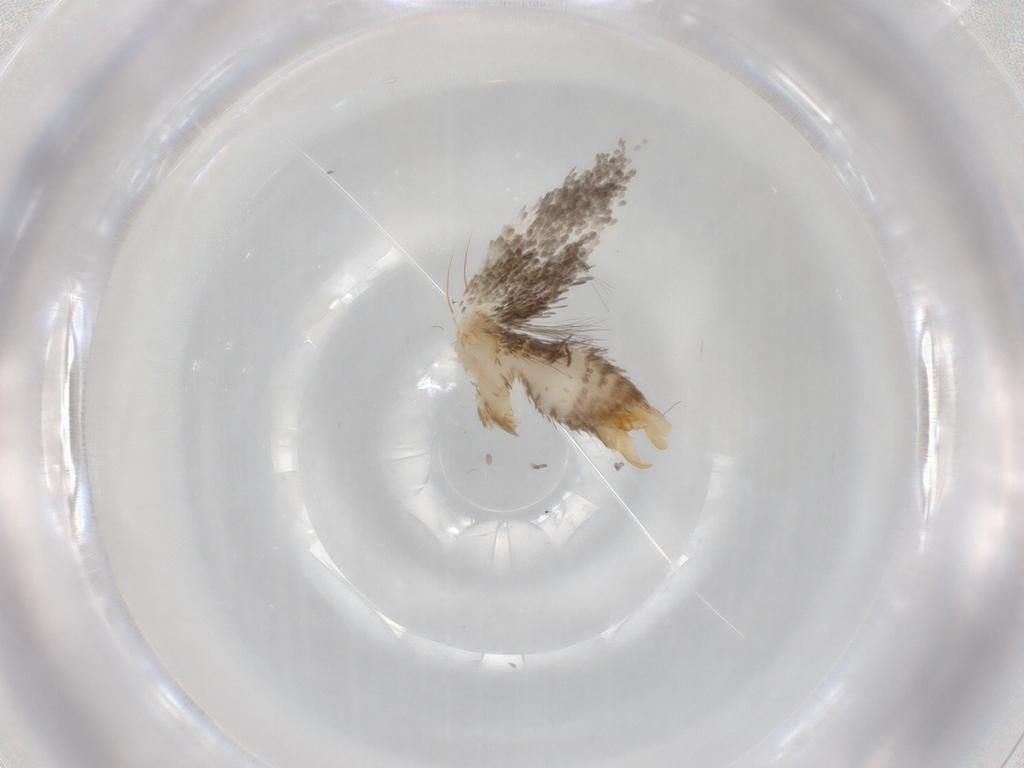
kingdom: Animalia
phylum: Arthropoda
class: Insecta
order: Lepidoptera
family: Tineidae
